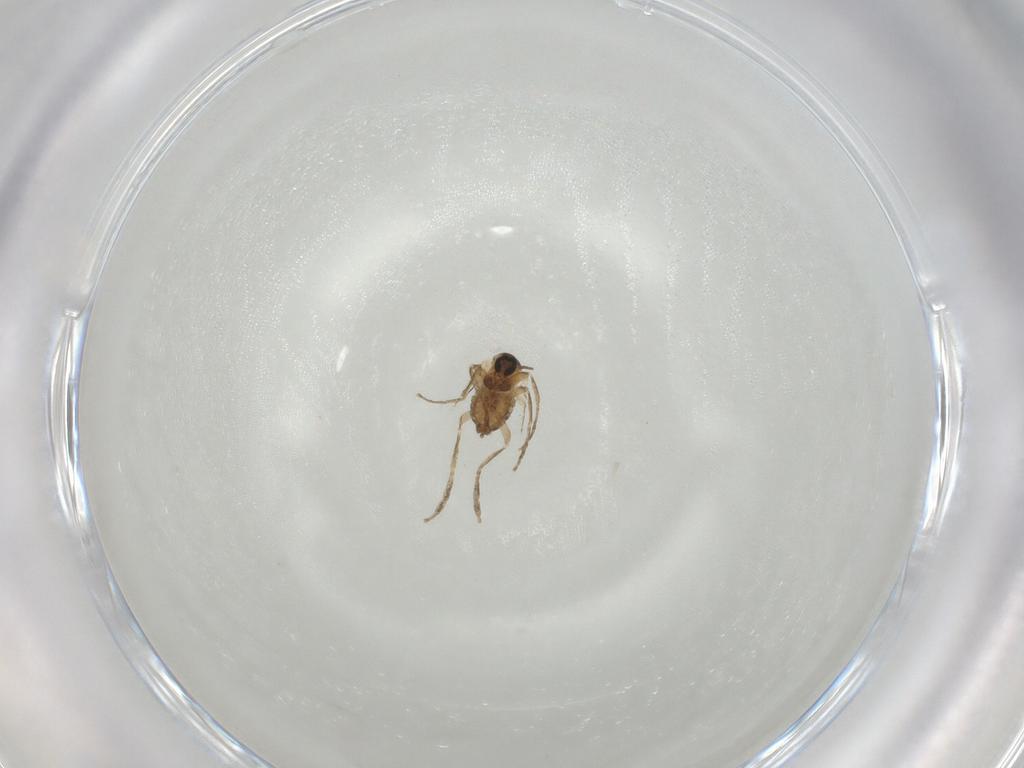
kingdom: Animalia
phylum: Arthropoda
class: Insecta
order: Diptera
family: Cecidomyiidae
